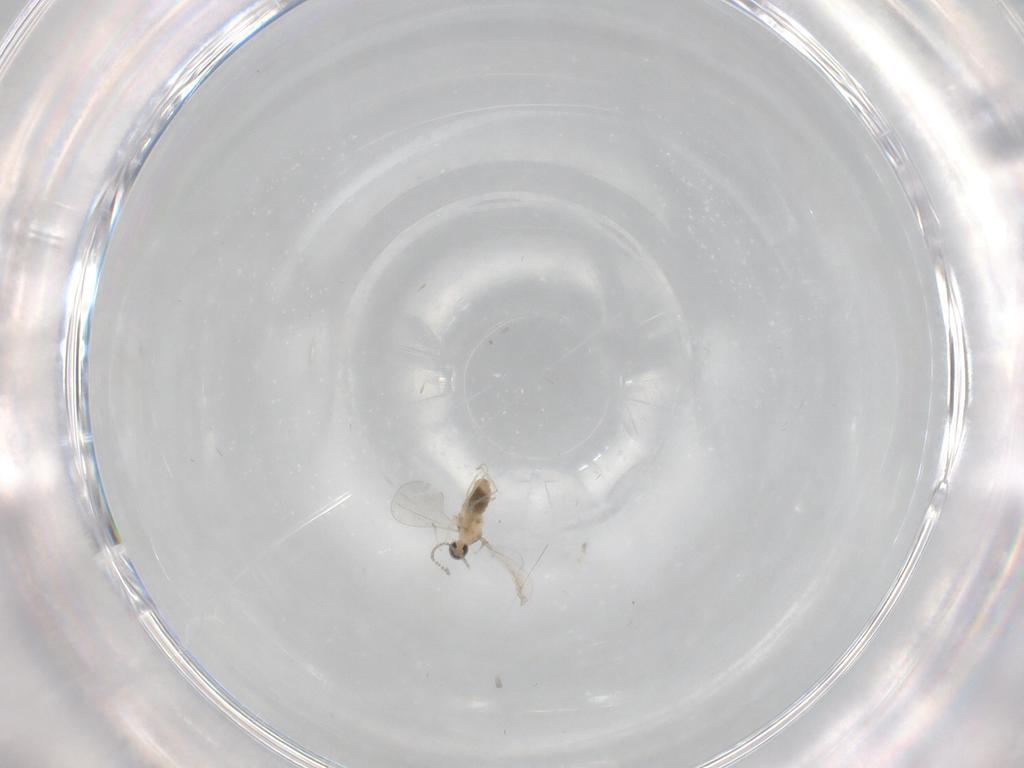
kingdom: Animalia
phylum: Arthropoda
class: Insecta
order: Diptera
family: Cecidomyiidae
